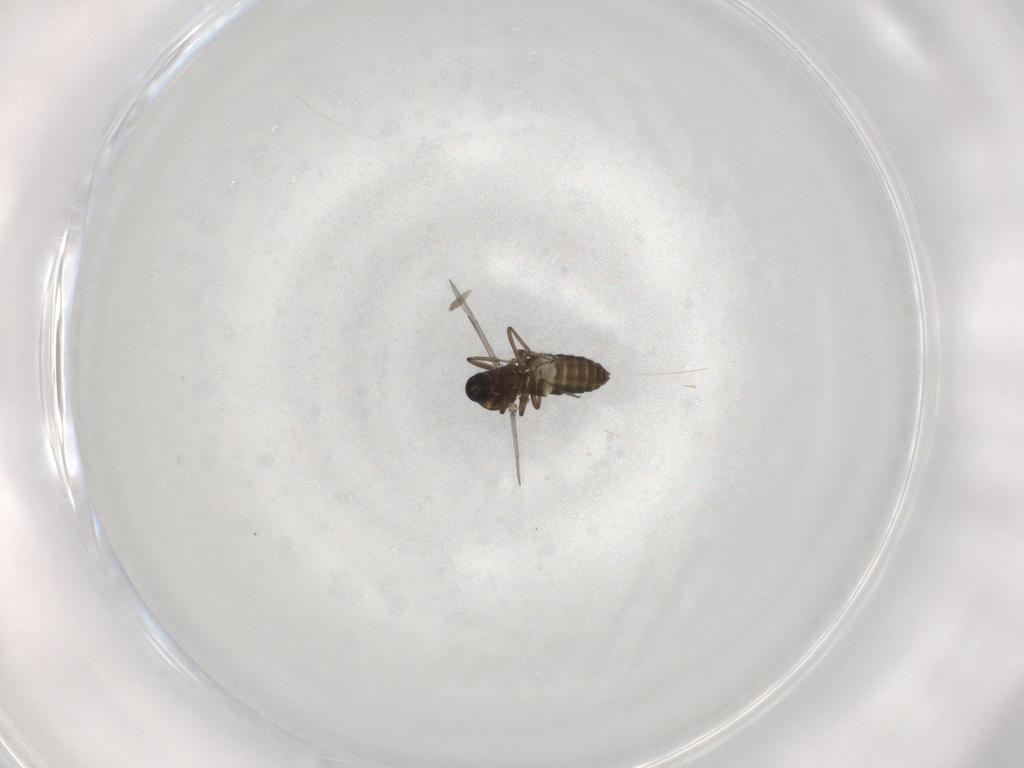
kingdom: Animalia
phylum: Arthropoda
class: Insecta
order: Diptera
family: Ceratopogonidae
